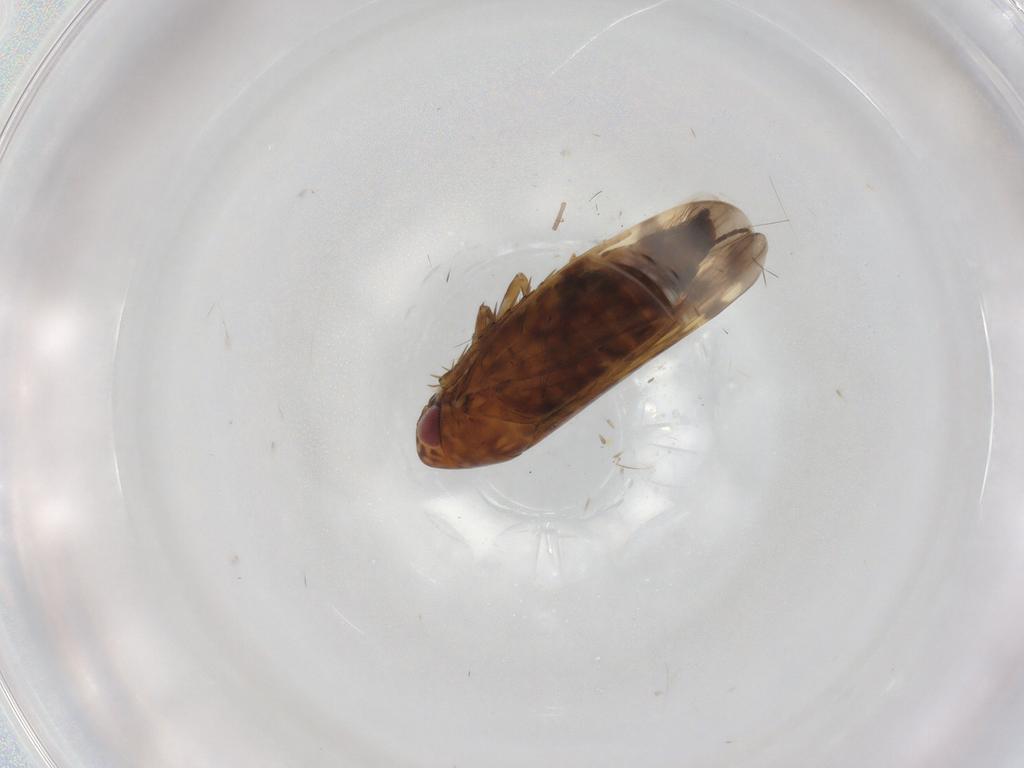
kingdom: Animalia
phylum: Arthropoda
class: Insecta
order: Hemiptera
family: Cicadellidae
